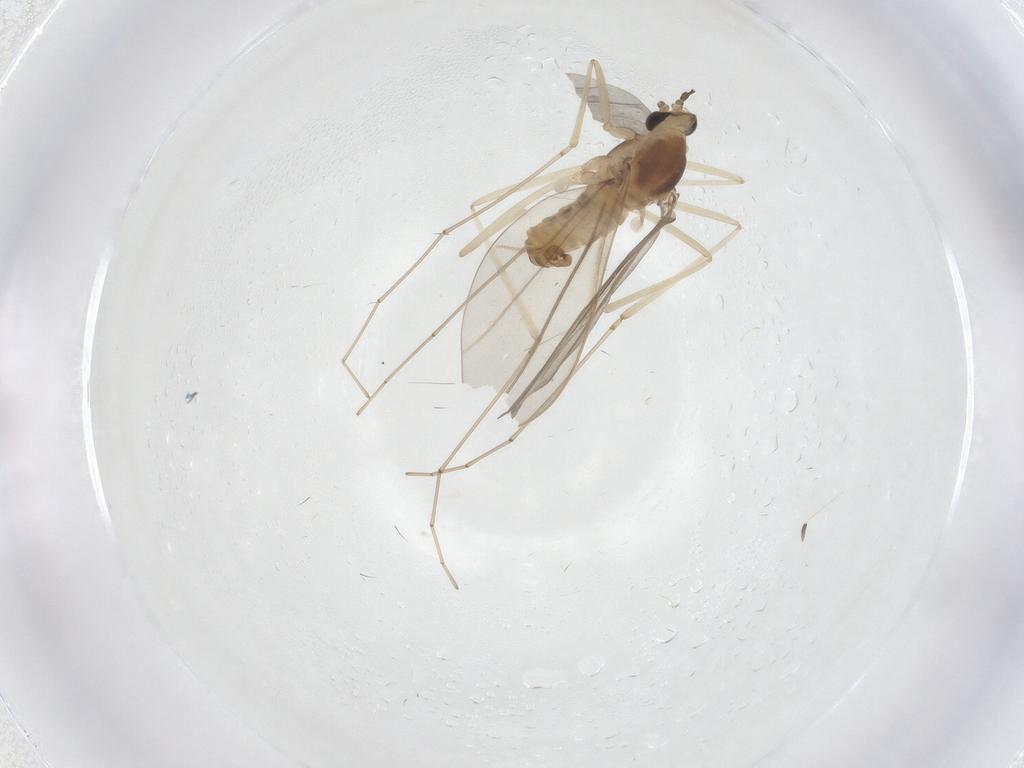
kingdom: Animalia
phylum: Arthropoda
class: Insecta
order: Diptera
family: Cecidomyiidae
